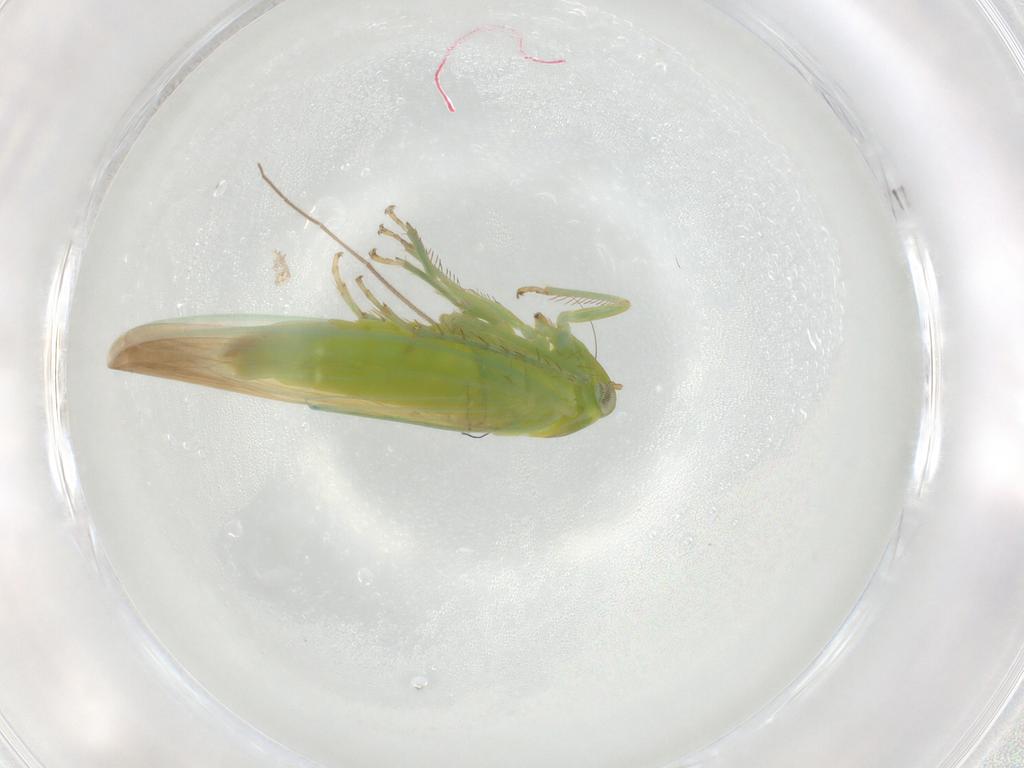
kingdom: Animalia
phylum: Arthropoda
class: Insecta
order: Hemiptera
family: Cicadellidae
